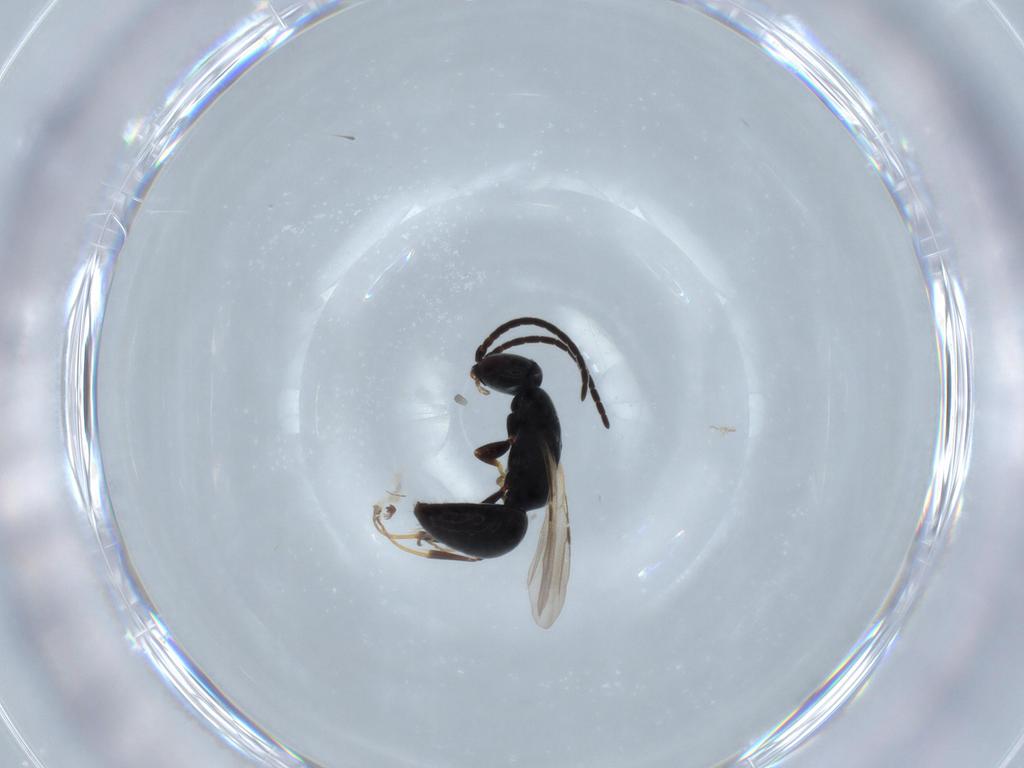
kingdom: Animalia
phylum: Arthropoda
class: Insecta
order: Hymenoptera
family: Bethylidae
